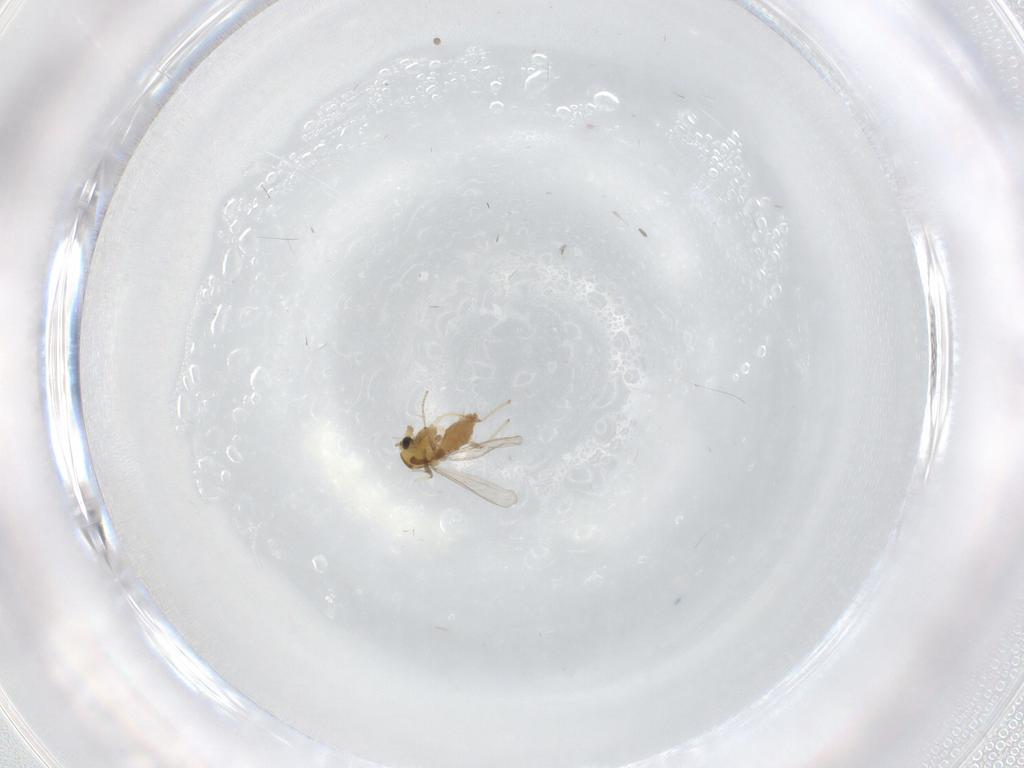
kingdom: Animalia
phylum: Arthropoda
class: Insecta
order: Diptera
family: Chironomidae
